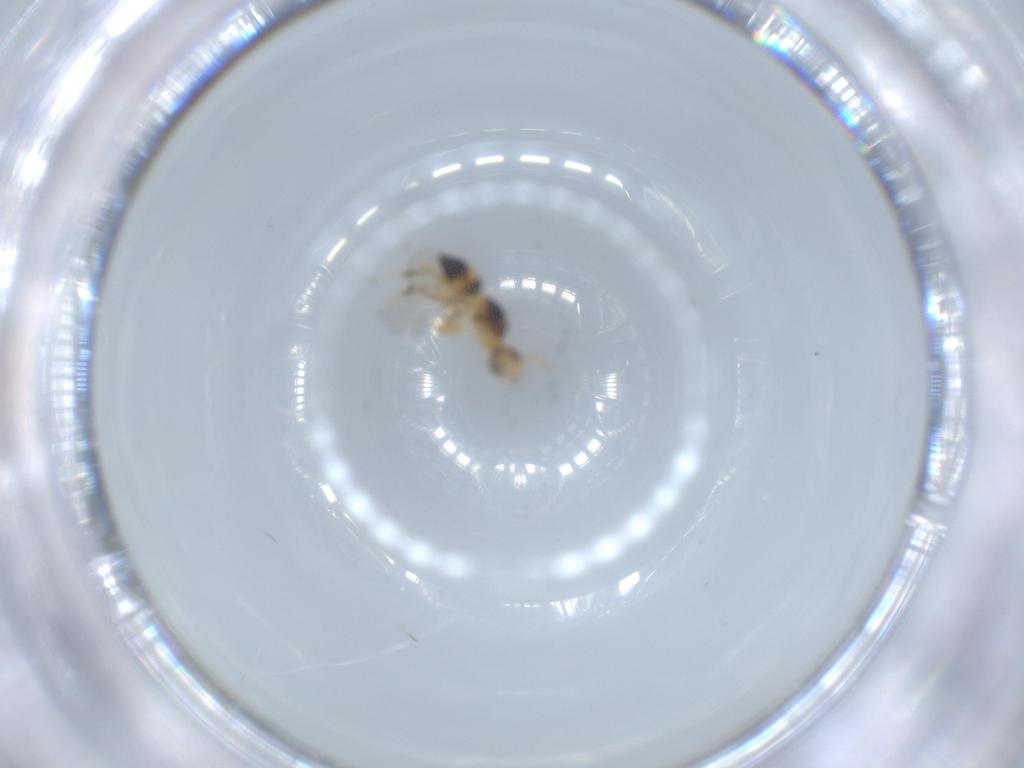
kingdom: Animalia
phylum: Arthropoda
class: Insecta
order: Hymenoptera
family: Torymidae
